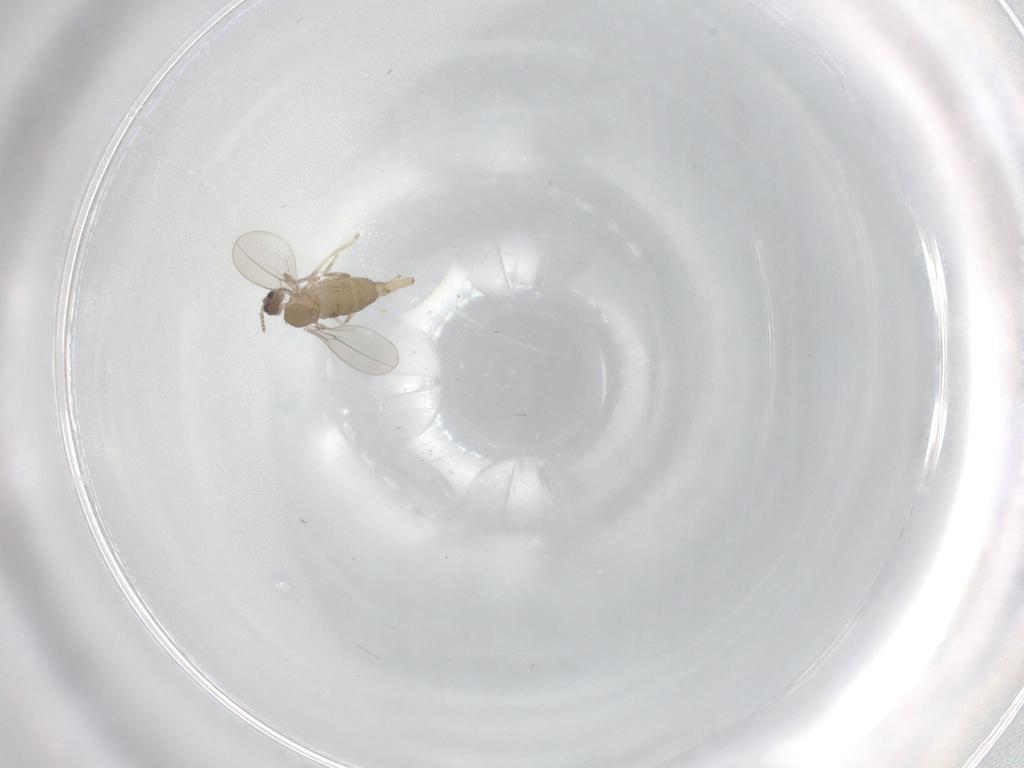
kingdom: Animalia
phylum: Arthropoda
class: Insecta
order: Diptera
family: Cecidomyiidae
